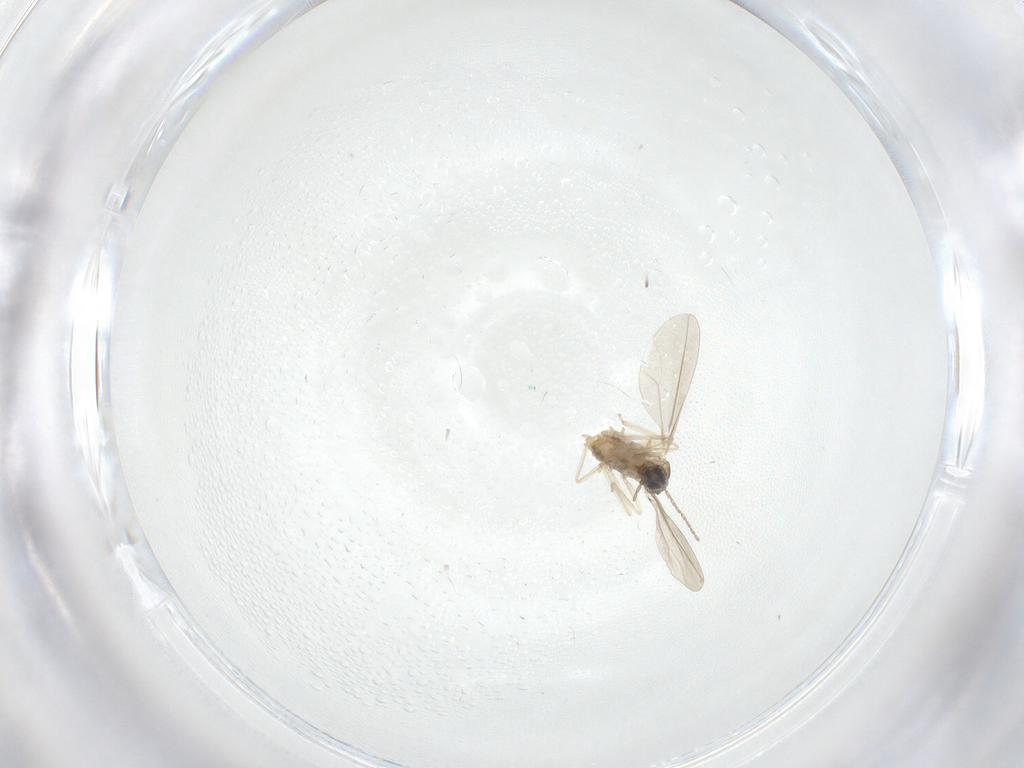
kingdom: Animalia
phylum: Arthropoda
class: Insecta
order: Diptera
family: Cecidomyiidae
